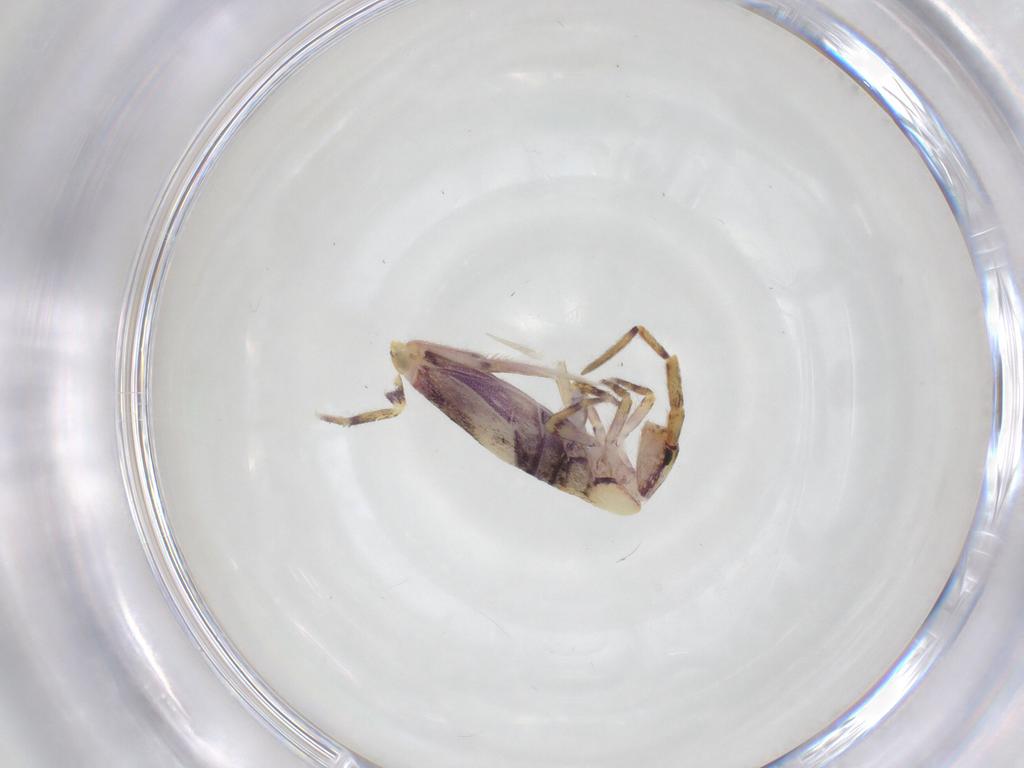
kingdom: Animalia
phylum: Arthropoda
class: Collembola
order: Entomobryomorpha
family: Entomobryidae
